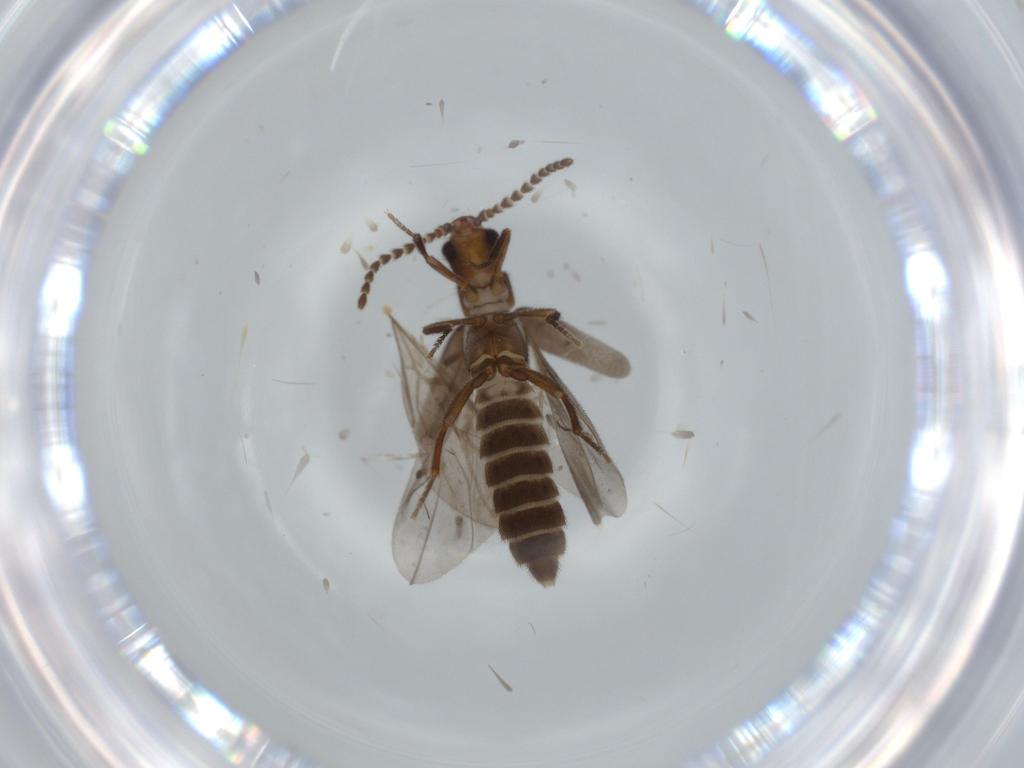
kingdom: Animalia
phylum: Arthropoda
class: Insecta
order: Coleoptera
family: Omethidae
